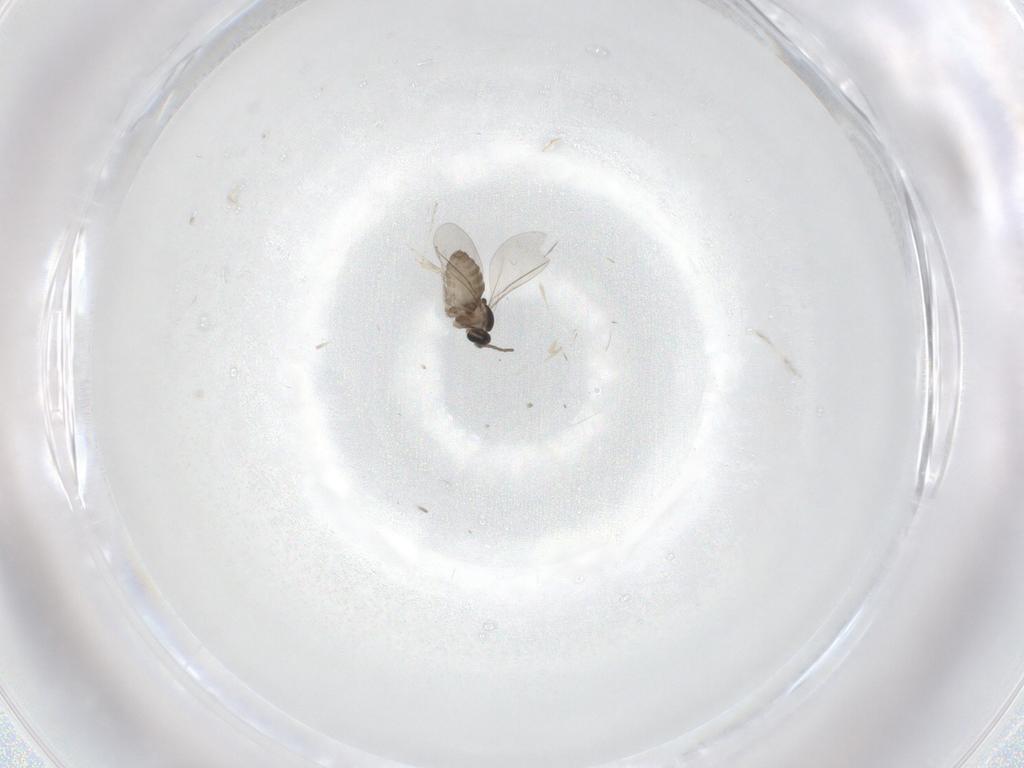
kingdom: Animalia
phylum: Arthropoda
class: Insecta
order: Diptera
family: Cecidomyiidae
